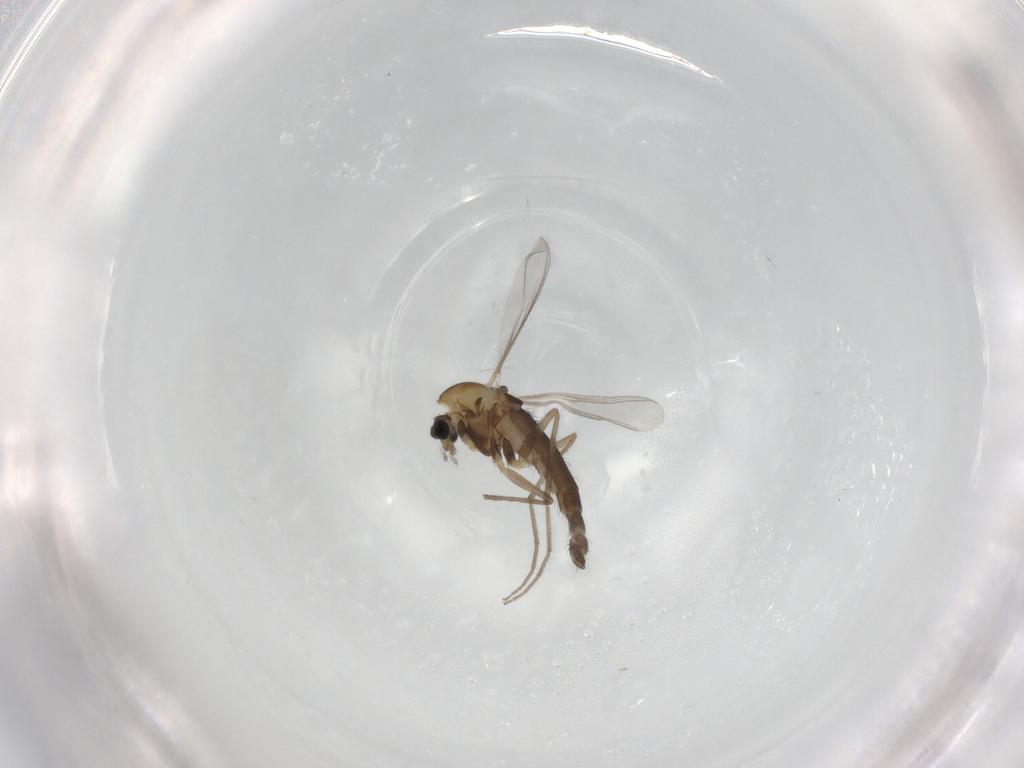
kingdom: Animalia
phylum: Arthropoda
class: Insecta
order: Diptera
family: Chironomidae
